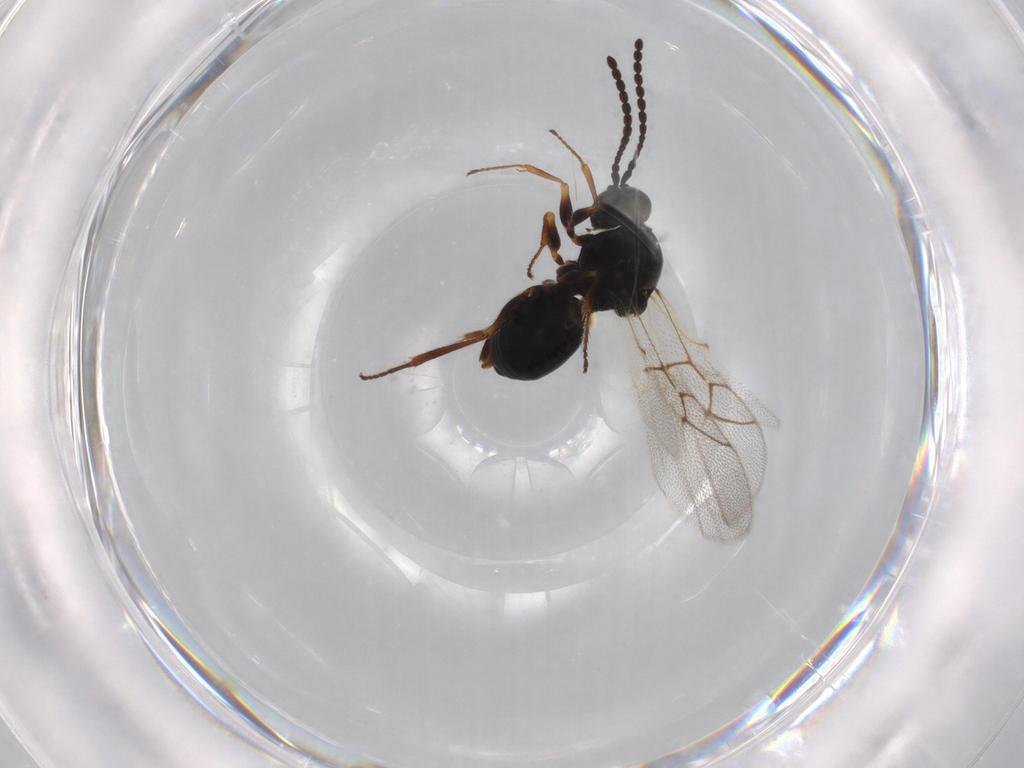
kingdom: Animalia
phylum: Arthropoda
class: Insecta
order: Hymenoptera
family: Figitidae
